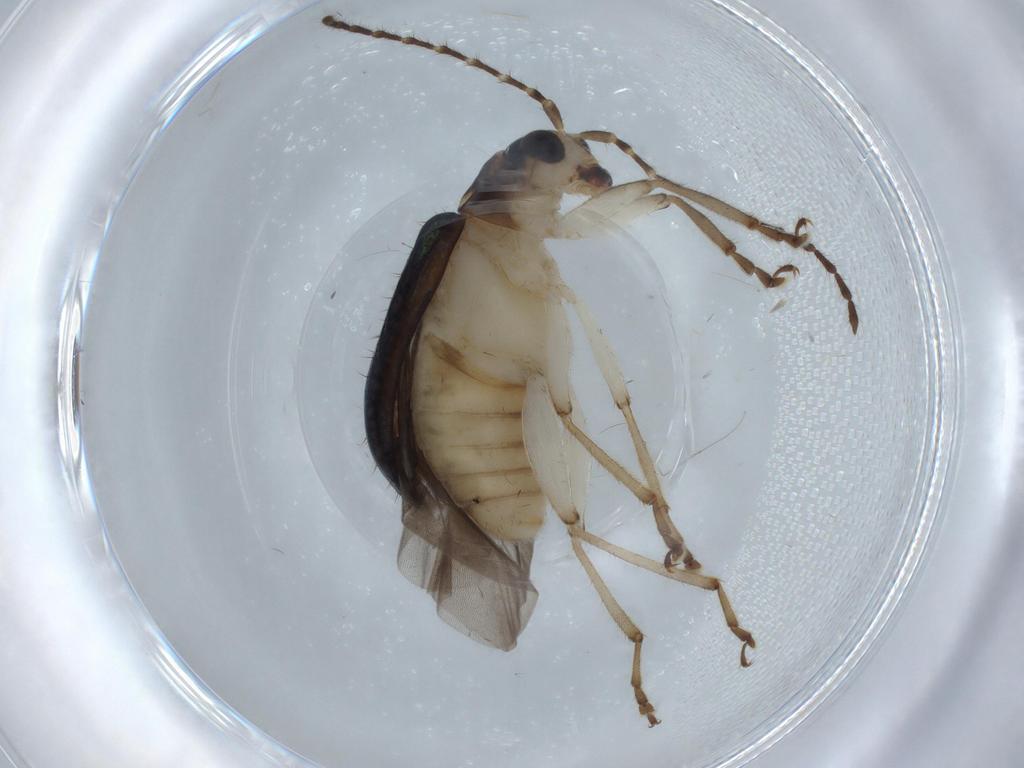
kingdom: Animalia
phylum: Arthropoda
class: Insecta
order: Coleoptera
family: Chrysomelidae
